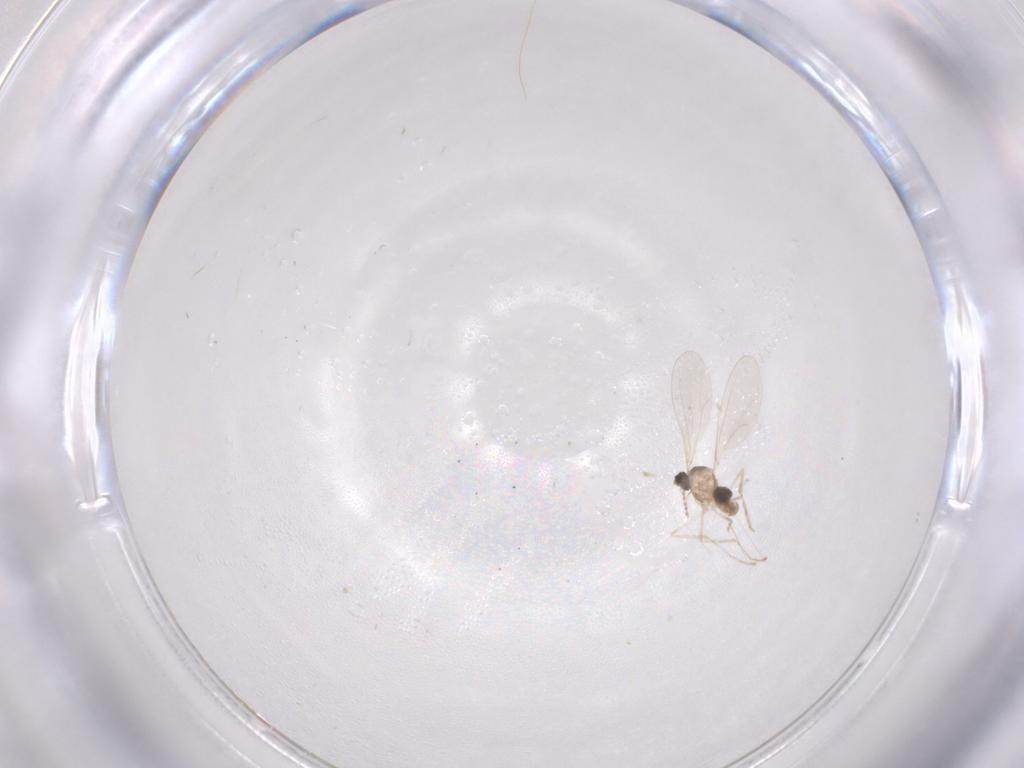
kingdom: Animalia
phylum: Arthropoda
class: Insecta
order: Diptera
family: Cecidomyiidae
